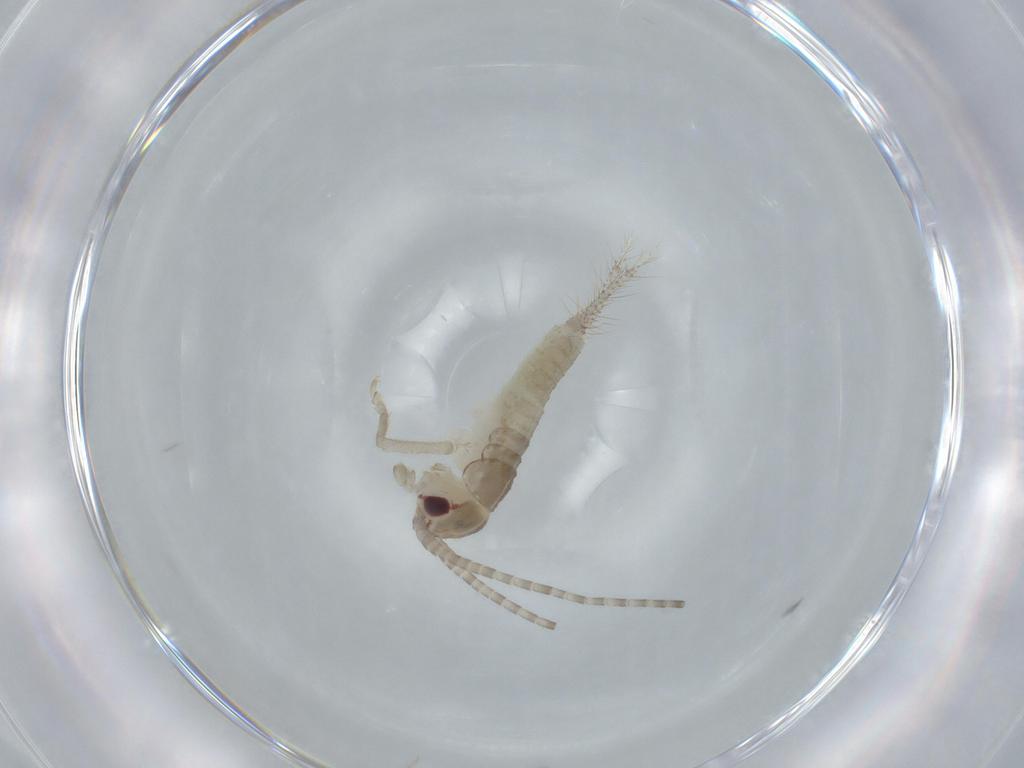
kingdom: Animalia
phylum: Arthropoda
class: Insecta
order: Orthoptera
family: Gryllidae
